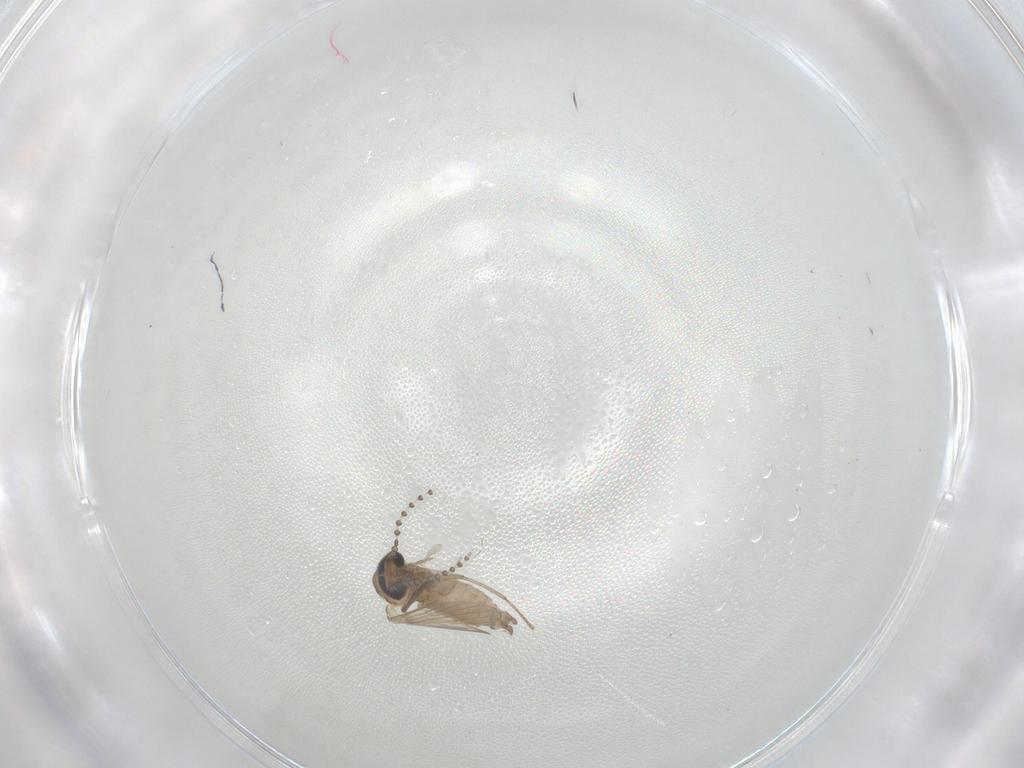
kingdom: Animalia
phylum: Arthropoda
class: Insecta
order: Diptera
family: Psychodidae
